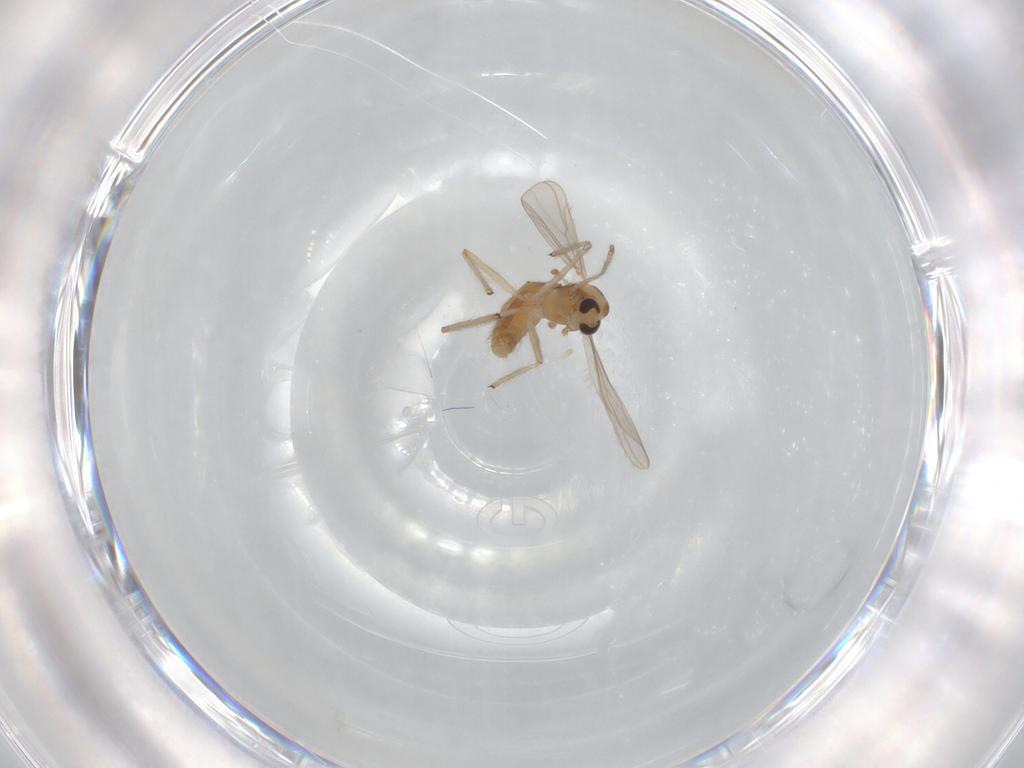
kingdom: Animalia
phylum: Arthropoda
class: Insecta
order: Diptera
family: Chironomidae
